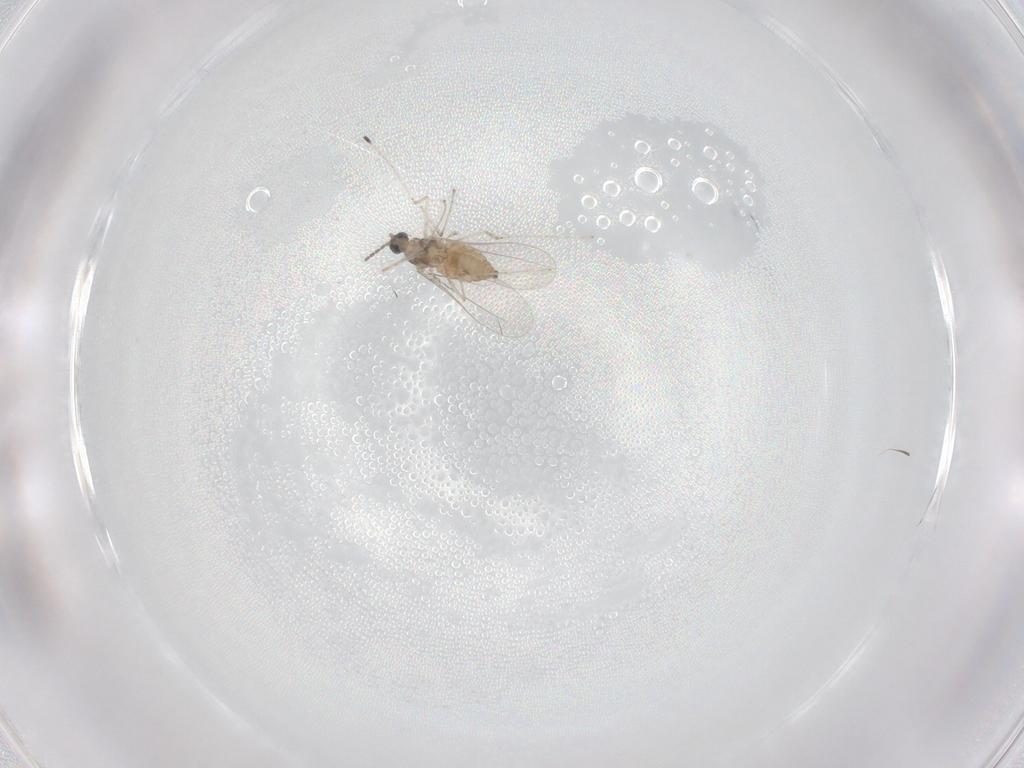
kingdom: Animalia
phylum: Arthropoda
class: Insecta
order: Diptera
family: Cecidomyiidae
